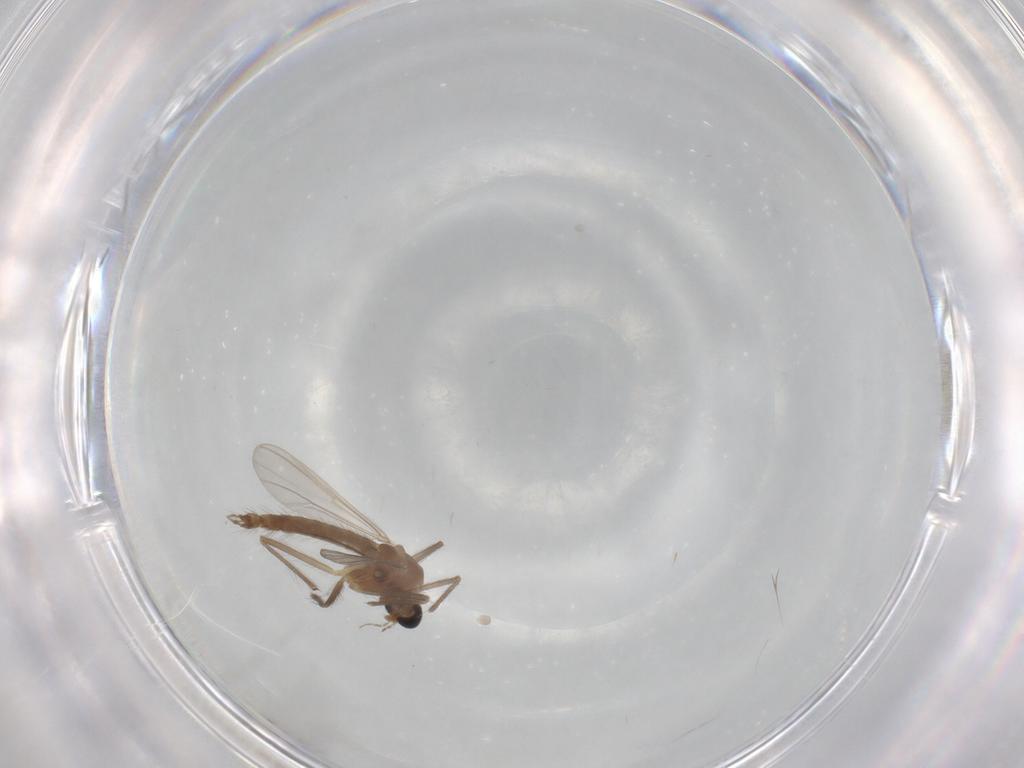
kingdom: Animalia
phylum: Arthropoda
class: Insecta
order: Diptera
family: Chironomidae
